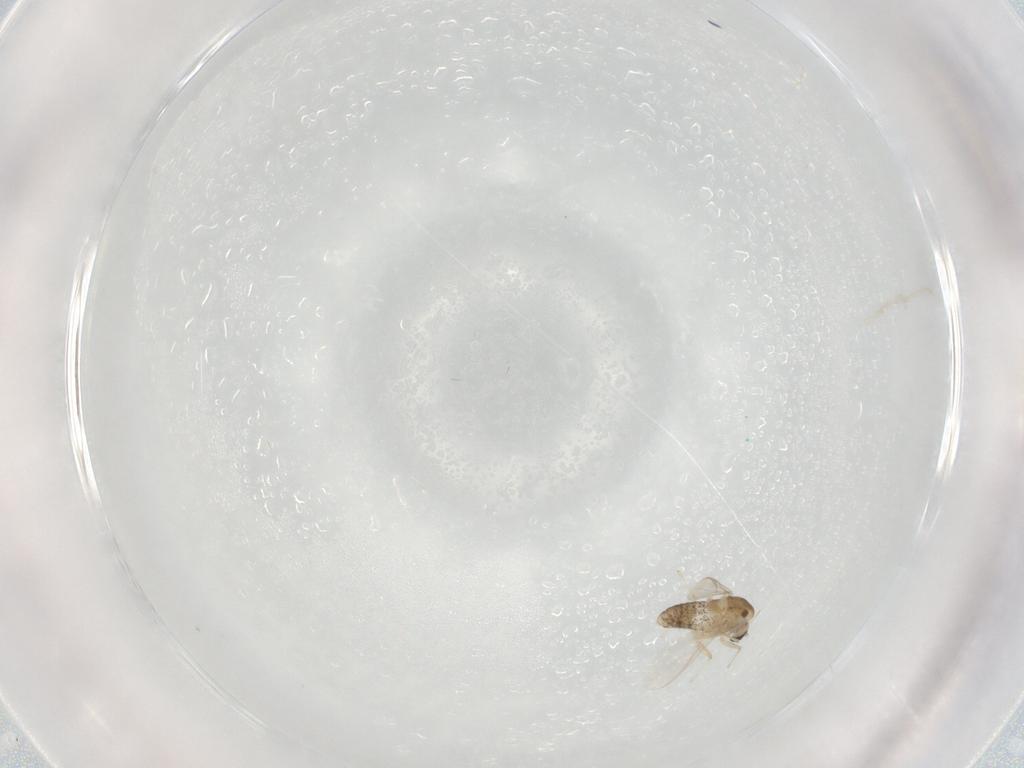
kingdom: Animalia
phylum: Arthropoda
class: Insecta
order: Diptera
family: Chironomidae
